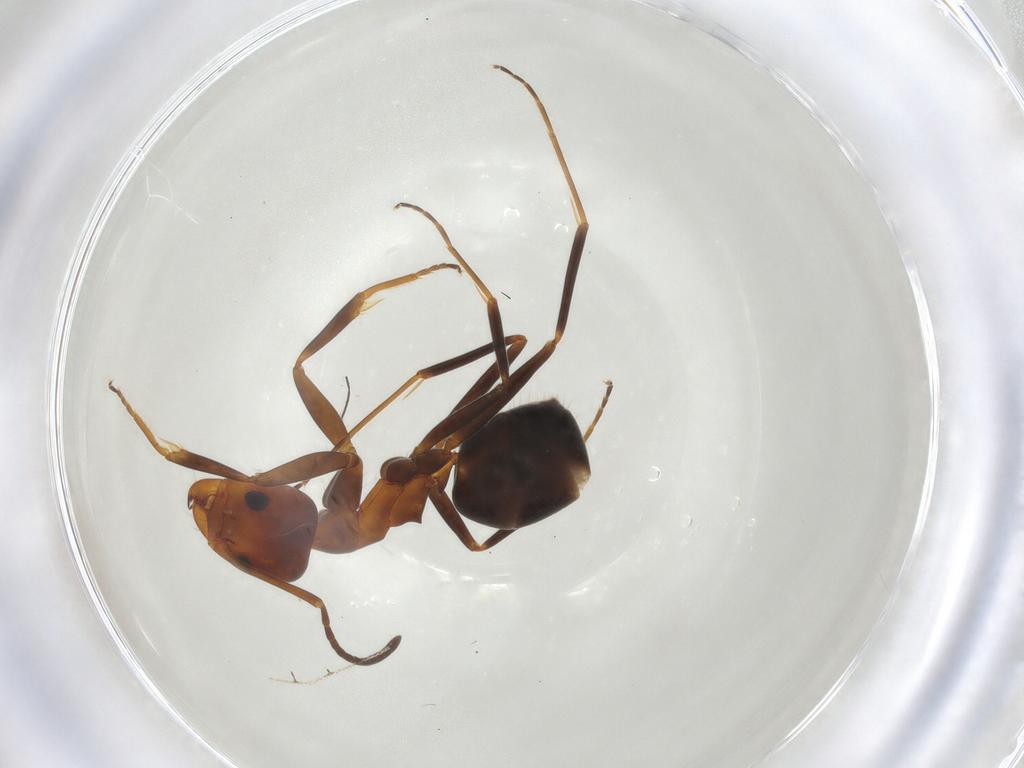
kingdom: Animalia
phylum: Arthropoda
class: Insecta
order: Hymenoptera
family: Formicidae
